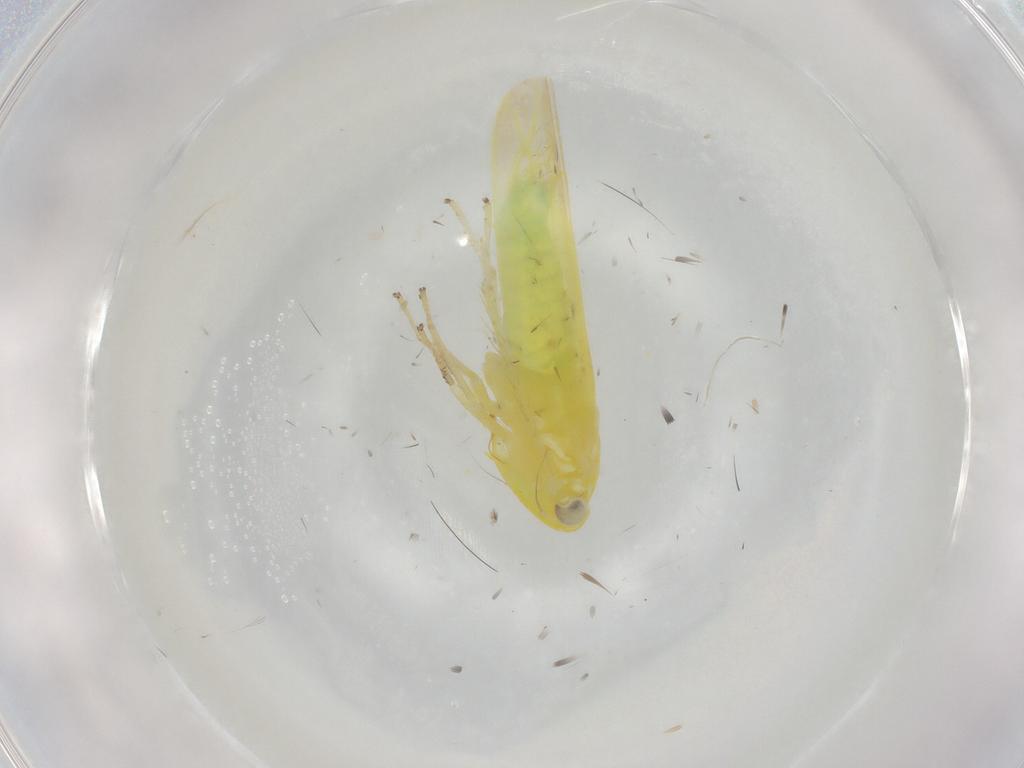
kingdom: Animalia
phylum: Arthropoda
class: Insecta
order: Hemiptera
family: Cicadellidae
